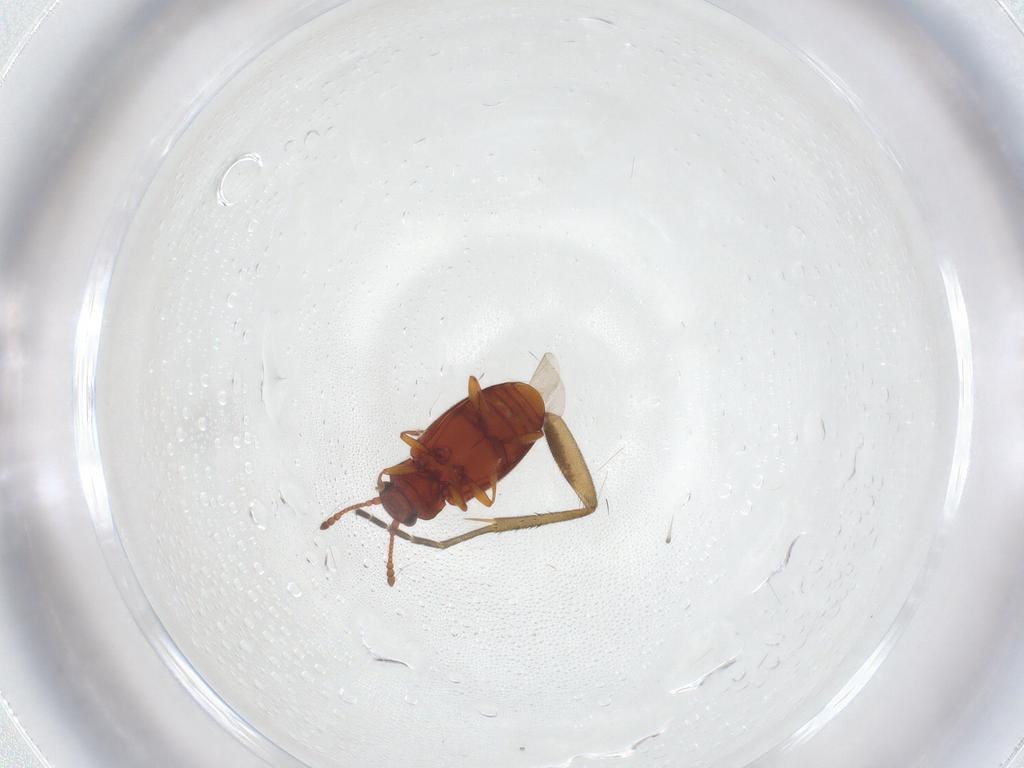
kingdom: Animalia
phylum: Arthropoda
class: Insecta
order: Coleoptera
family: Cryptophagidae
